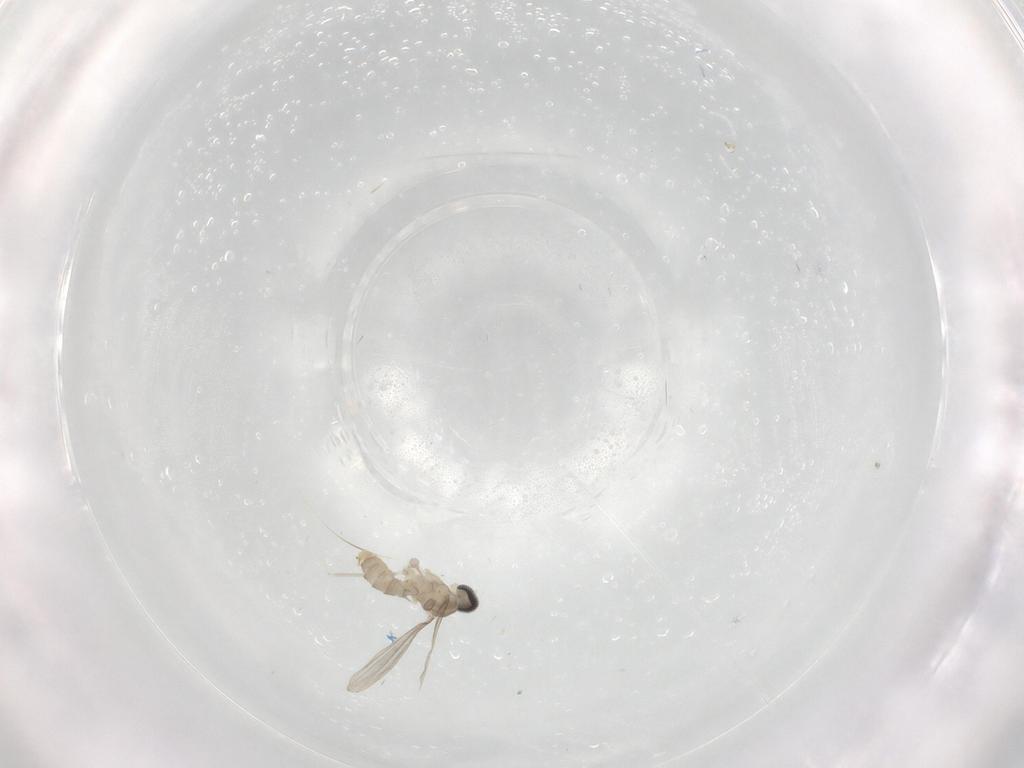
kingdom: Animalia
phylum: Arthropoda
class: Insecta
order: Diptera
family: Cecidomyiidae
